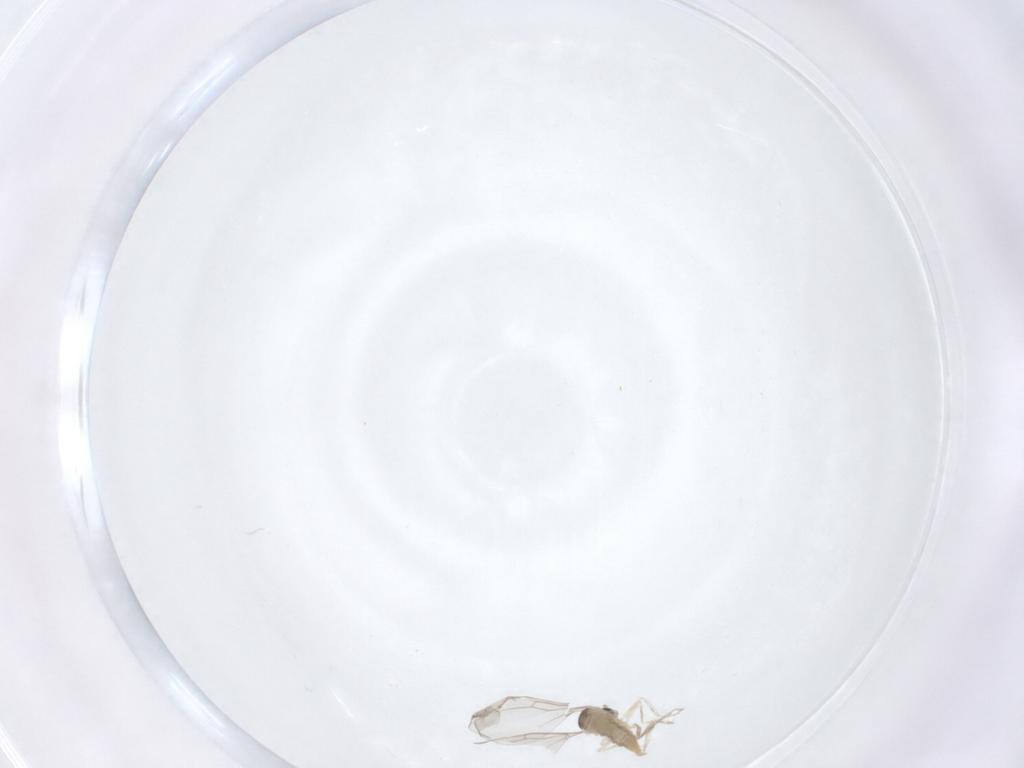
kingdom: Animalia
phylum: Arthropoda
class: Insecta
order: Diptera
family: Cecidomyiidae
